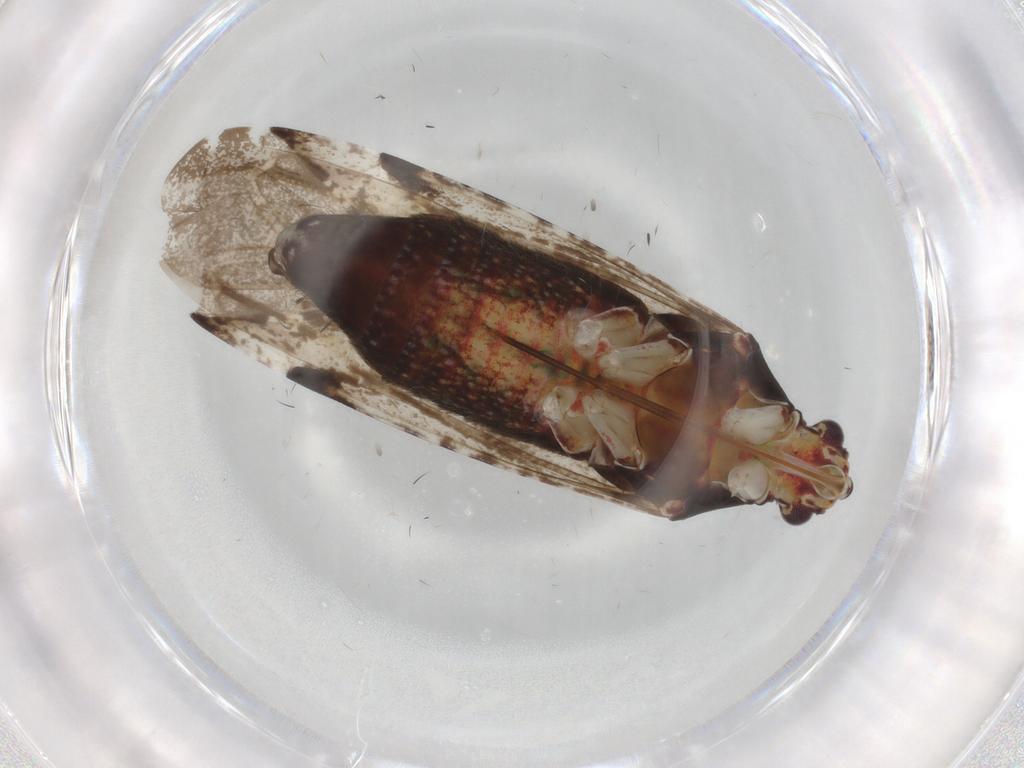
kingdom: Animalia
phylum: Arthropoda
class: Insecta
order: Hemiptera
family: Miridae
